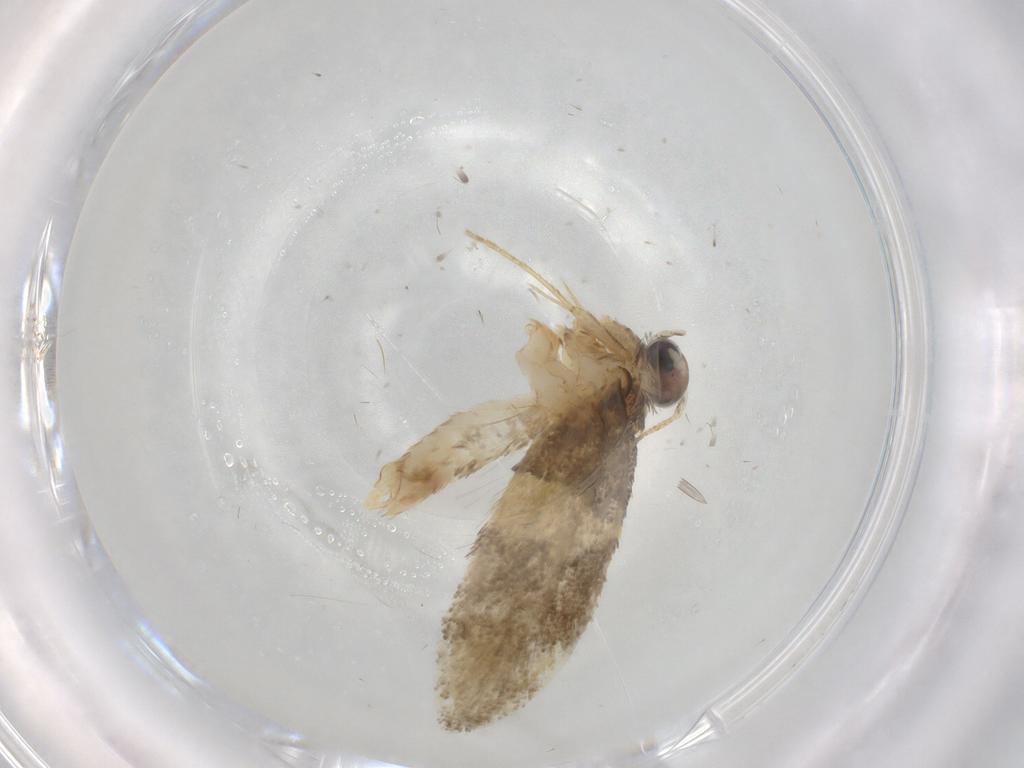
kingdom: Animalia
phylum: Arthropoda
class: Insecta
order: Lepidoptera
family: Psychidae
